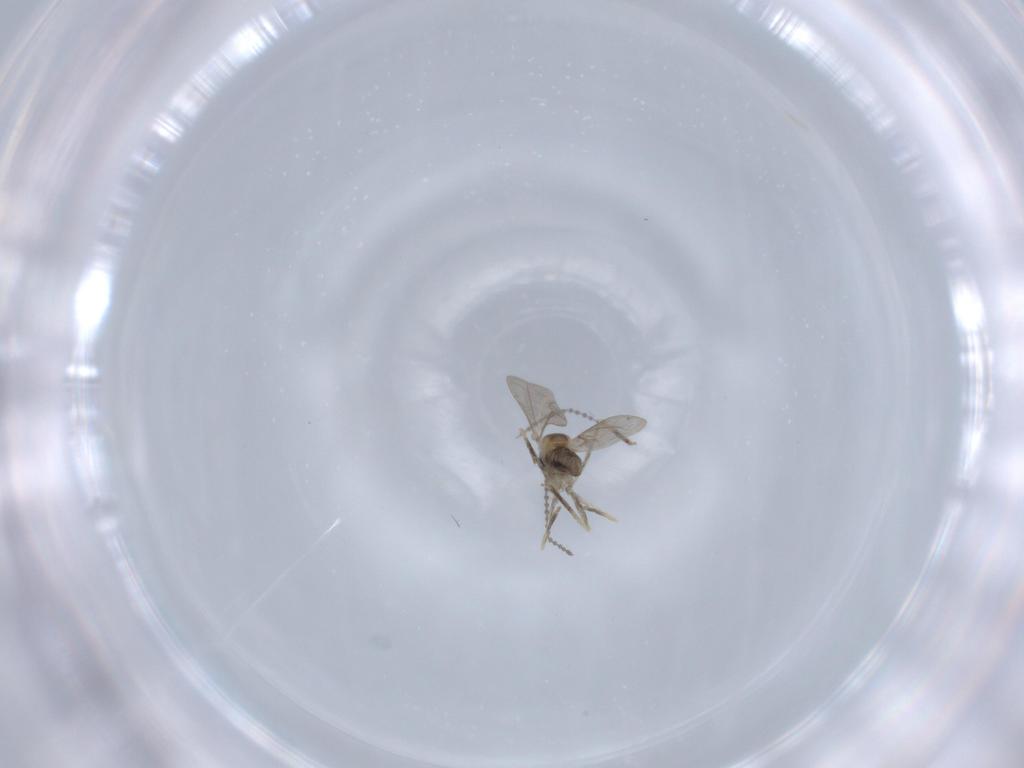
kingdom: Animalia
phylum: Arthropoda
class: Insecta
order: Diptera
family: Cecidomyiidae
